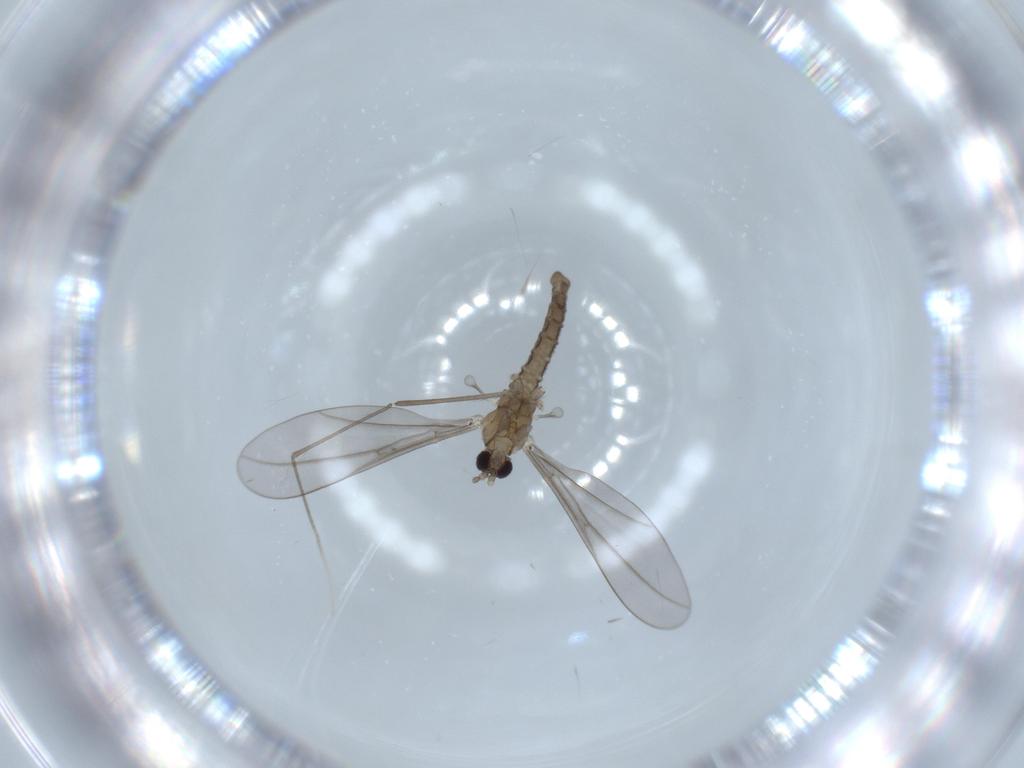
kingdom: Animalia
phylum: Arthropoda
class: Insecta
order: Diptera
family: Cecidomyiidae
